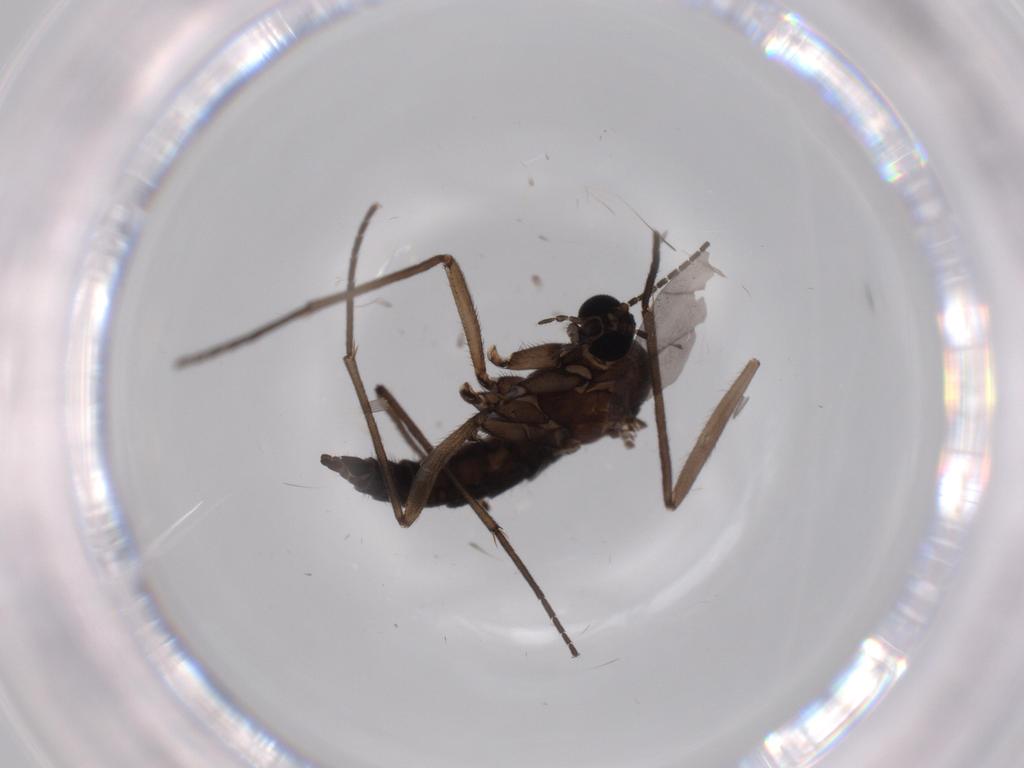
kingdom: Animalia
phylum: Arthropoda
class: Insecta
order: Diptera
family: Sciaridae
